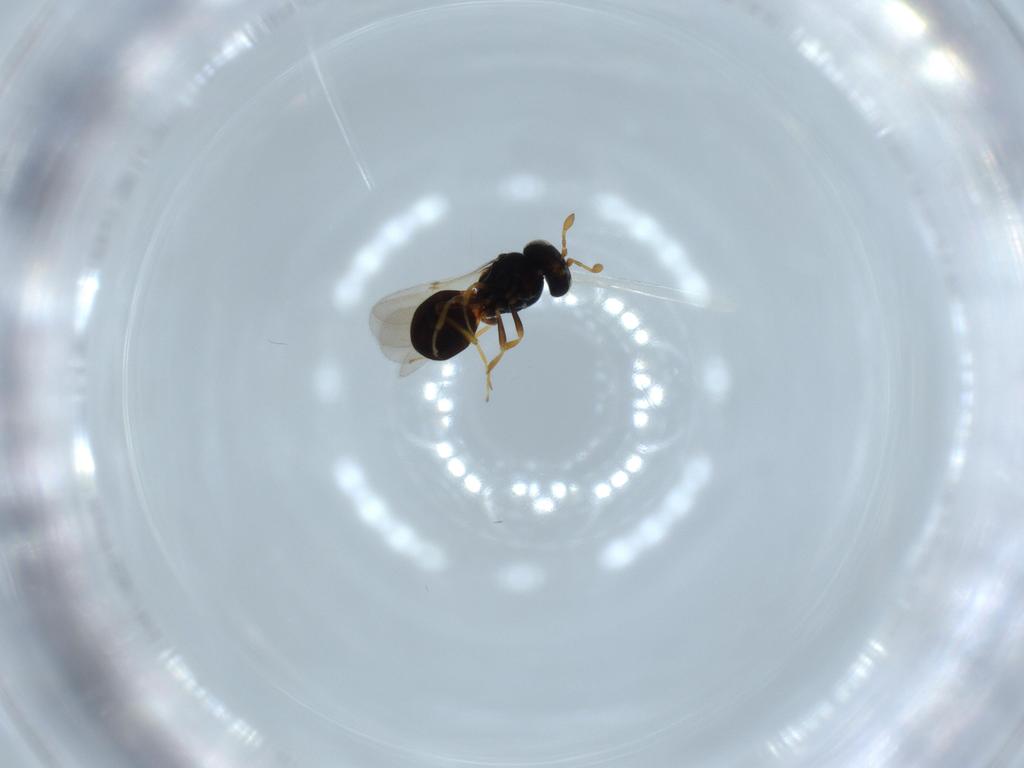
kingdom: Animalia
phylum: Arthropoda
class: Insecta
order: Hymenoptera
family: Scelionidae
